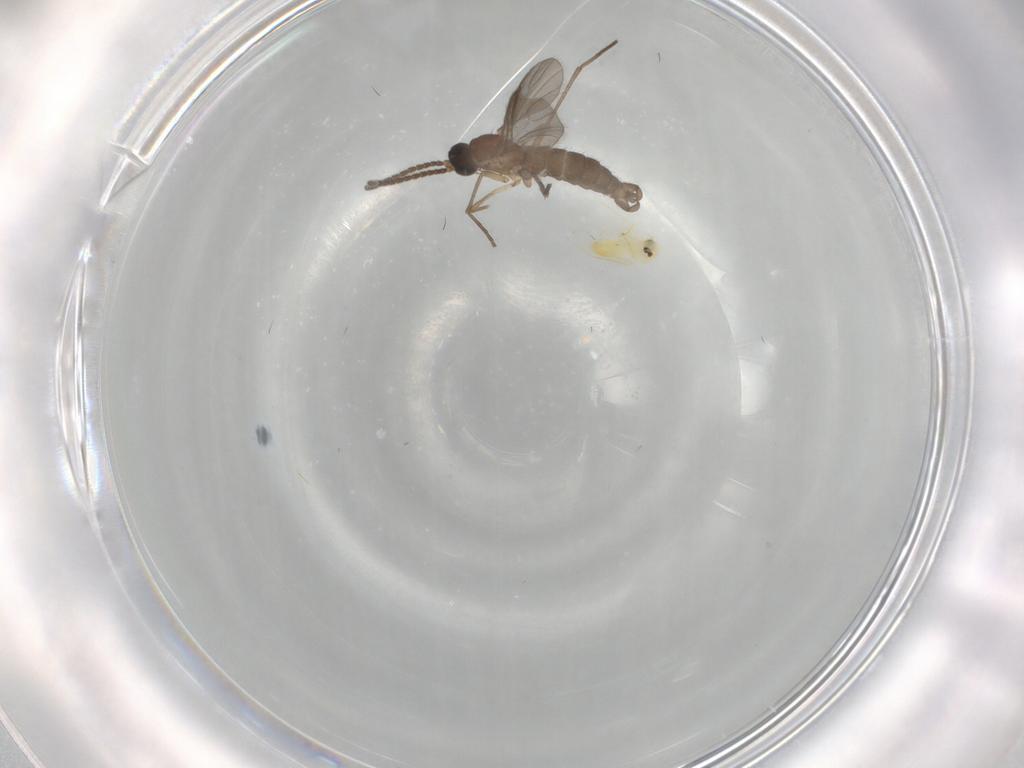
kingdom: Animalia
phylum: Arthropoda
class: Insecta
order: Diptera
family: Sciaridae
